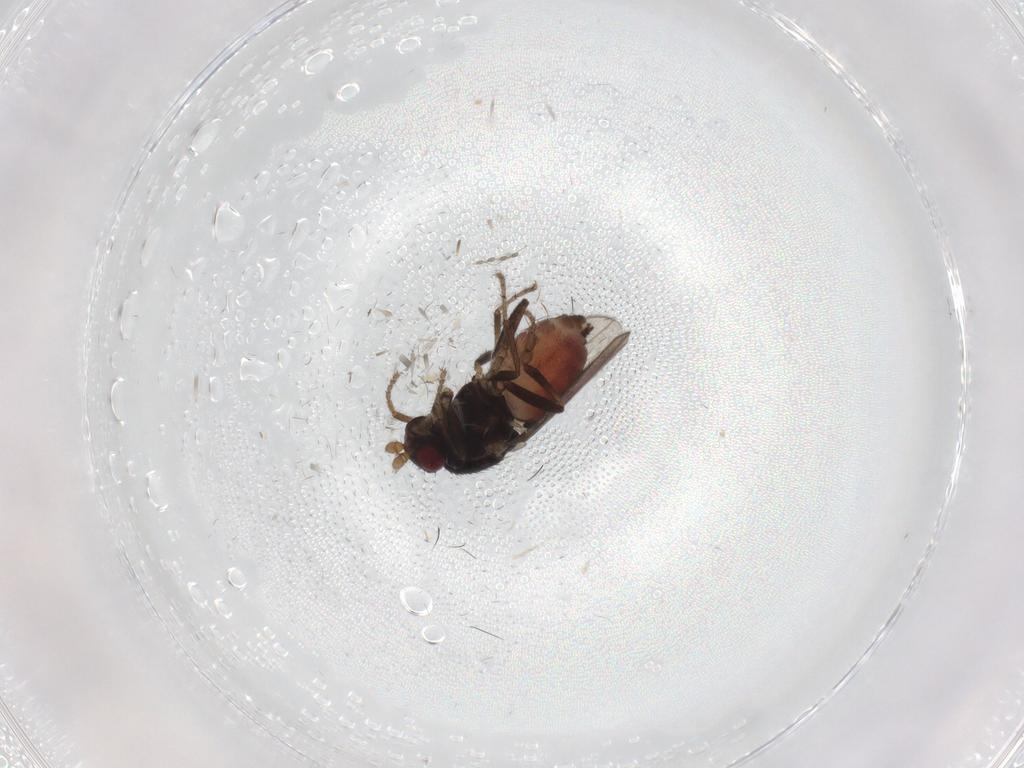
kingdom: Animalia
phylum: Arthropoda
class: Insecta
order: Diptera
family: Sphaeroceridae
